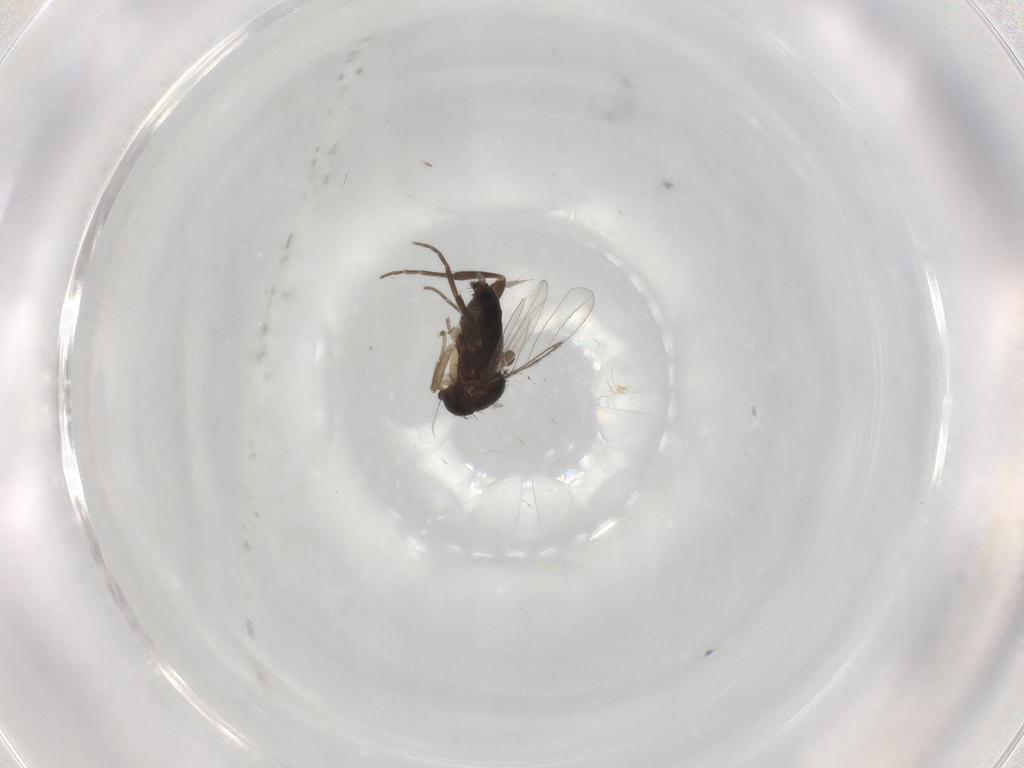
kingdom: Animalia
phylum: Arthropoda
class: Insecta
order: Diptera
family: Phoridae
